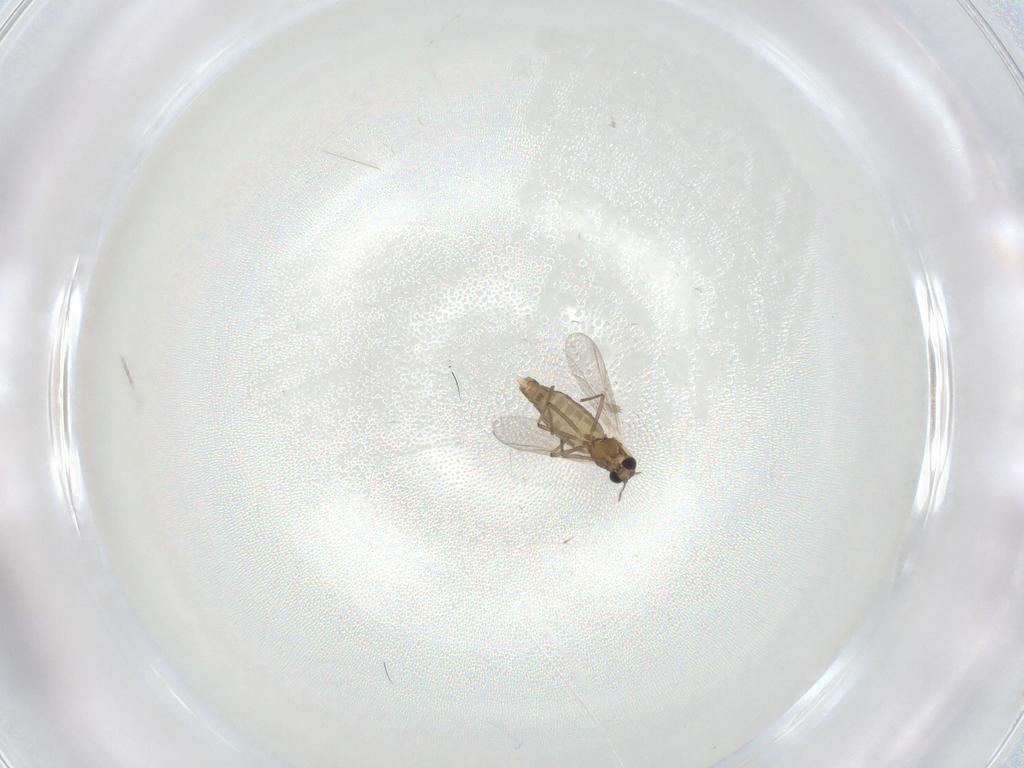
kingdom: Animalia
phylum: Arthropoda
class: Insecta
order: Diptera
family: Chironomidae
